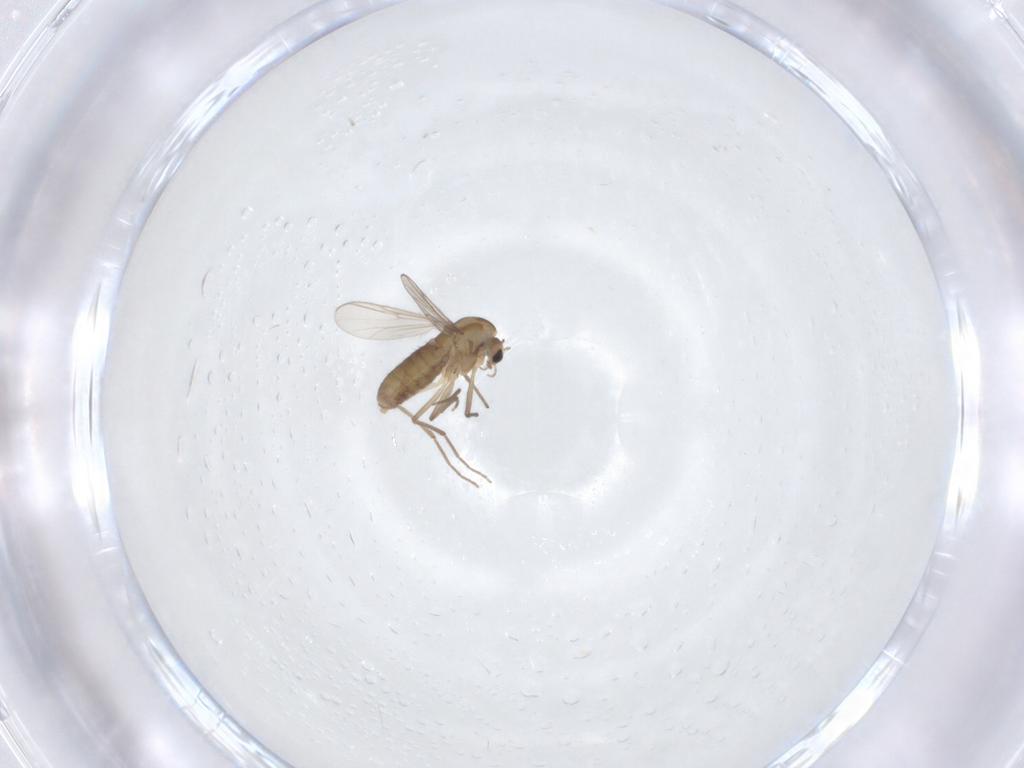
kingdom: Animalia
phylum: Arthropoda
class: Insecta
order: Diptera
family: Chironomidae
